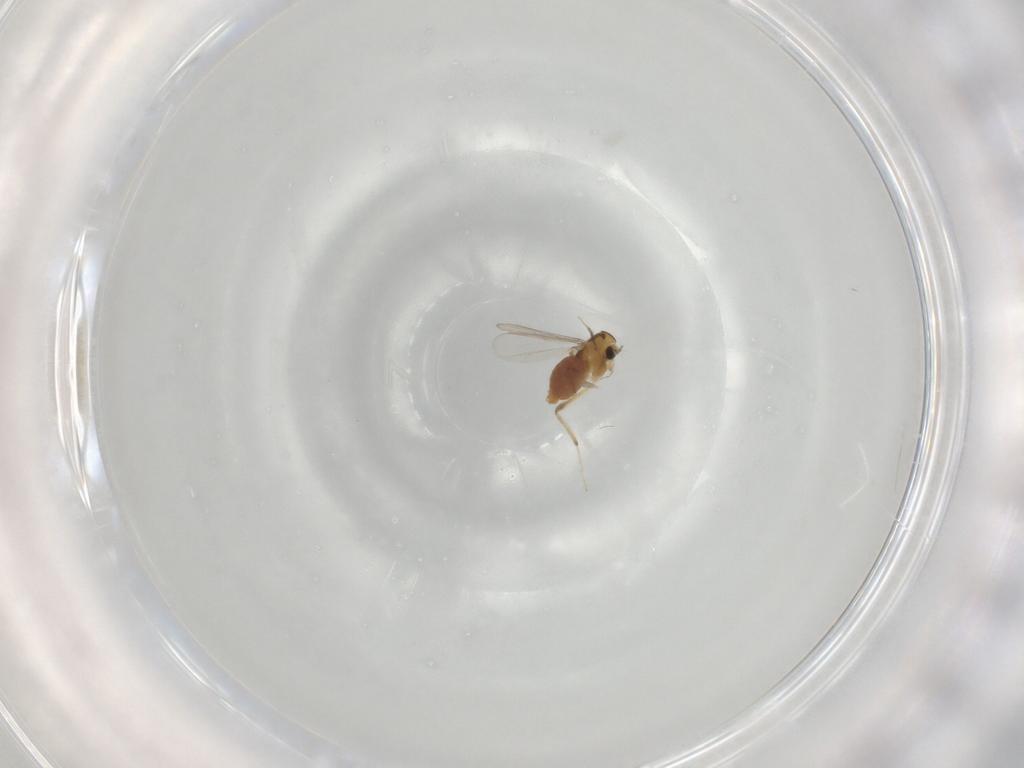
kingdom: Animalia
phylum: Arthropoda
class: Insecta
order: Diptera
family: Chironomidae
